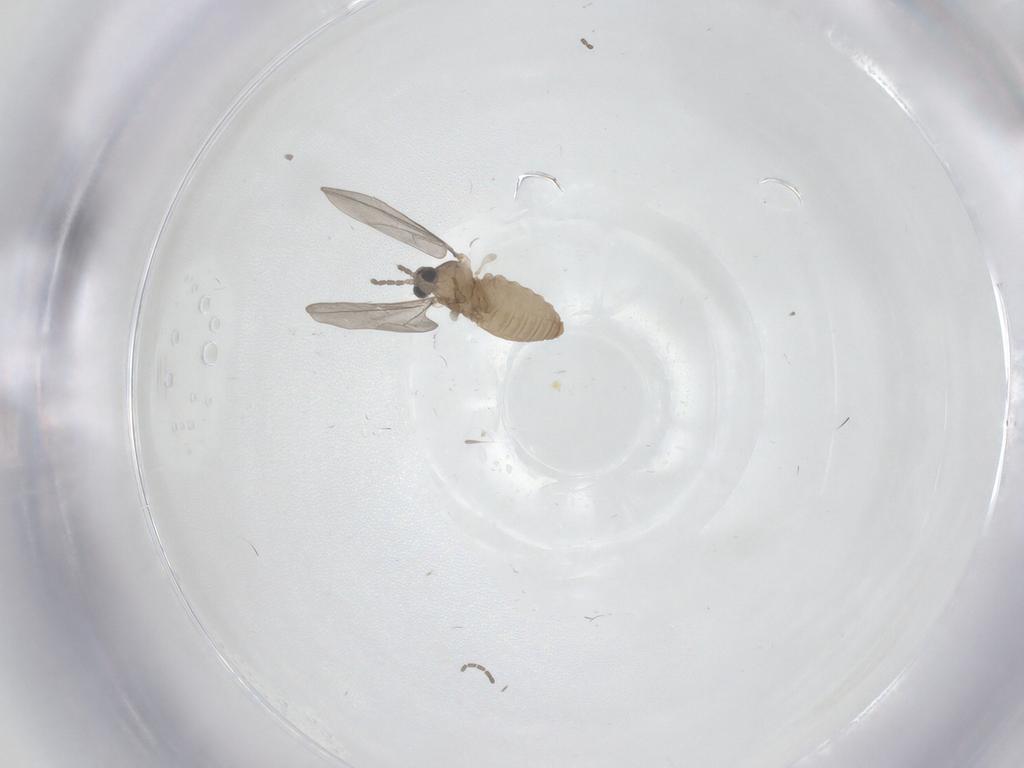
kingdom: Animalia
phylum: Arthropoda
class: Insecta
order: Diptera
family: Cecidomyiidae
